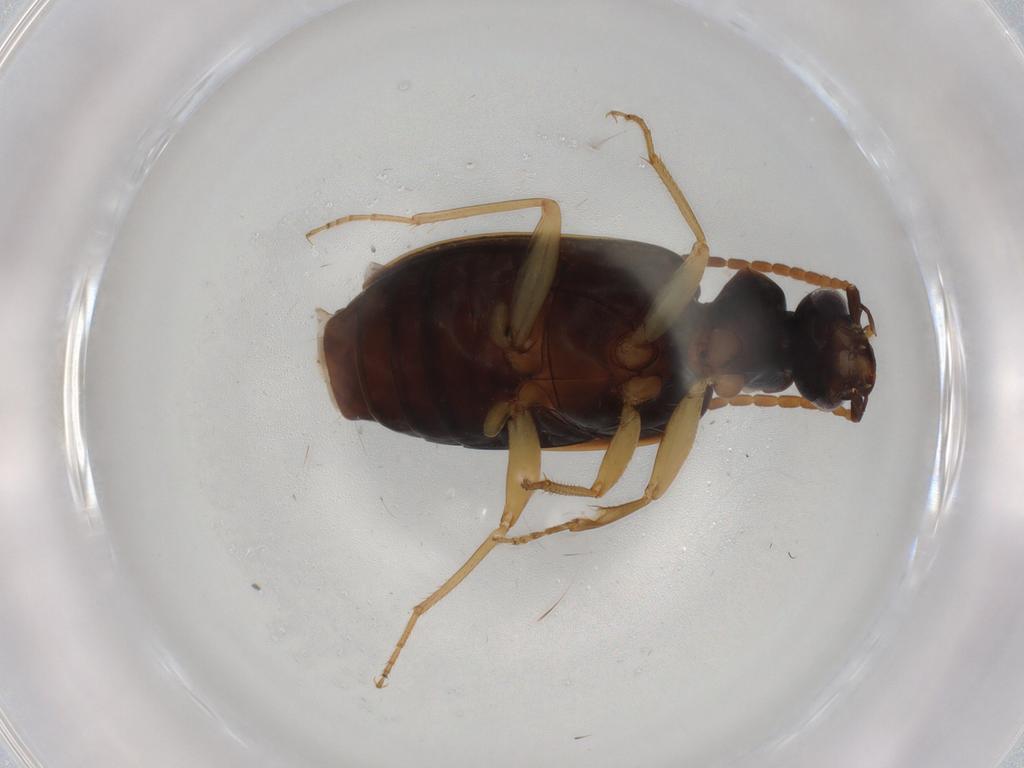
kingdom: Animalia
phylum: Arthropoda
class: Insecta
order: Coleoptera
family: Carabidae
